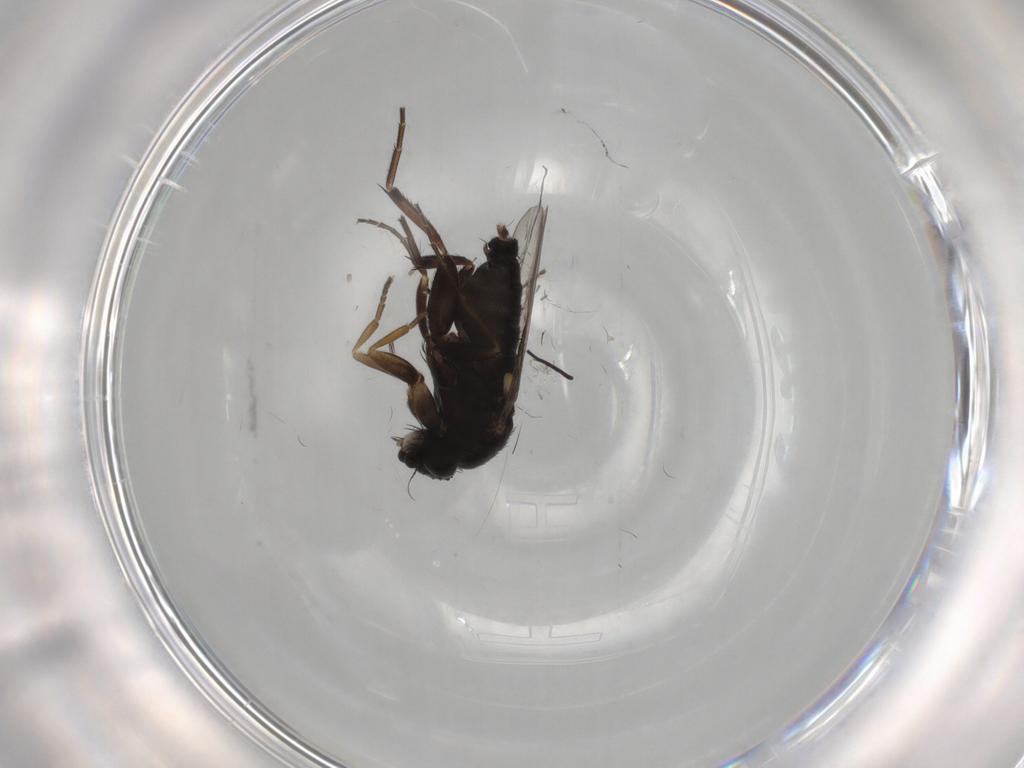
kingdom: Animalia
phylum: Arthropoda
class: Insecta
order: Diptera
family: Phoridae
